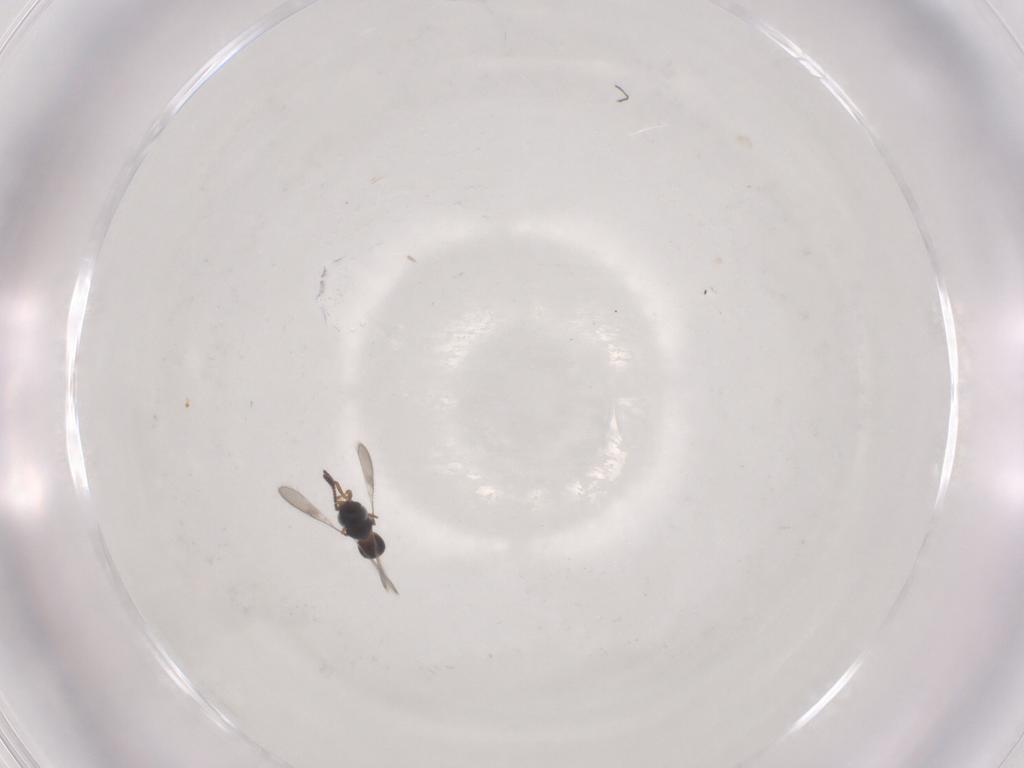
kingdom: Animalia
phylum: Arthropoda
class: Insecta
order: Hymenoptera
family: Scelionidae
